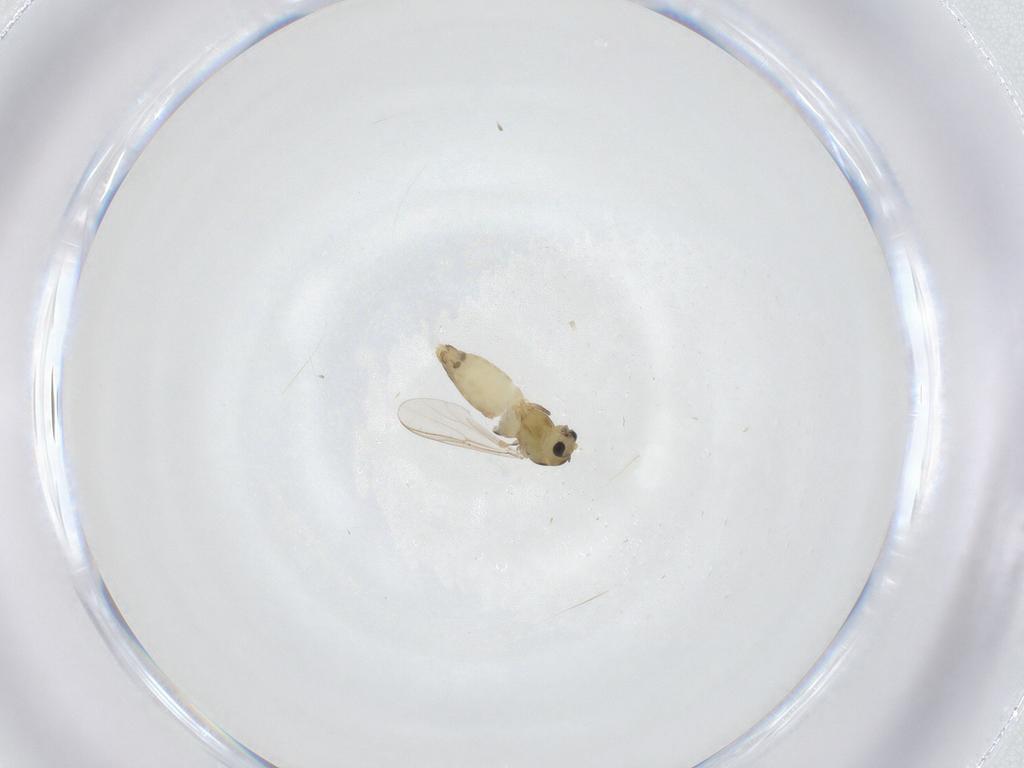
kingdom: Animalia
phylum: Arthropoda
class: Insecta
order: Diptera
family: Chironomidae
